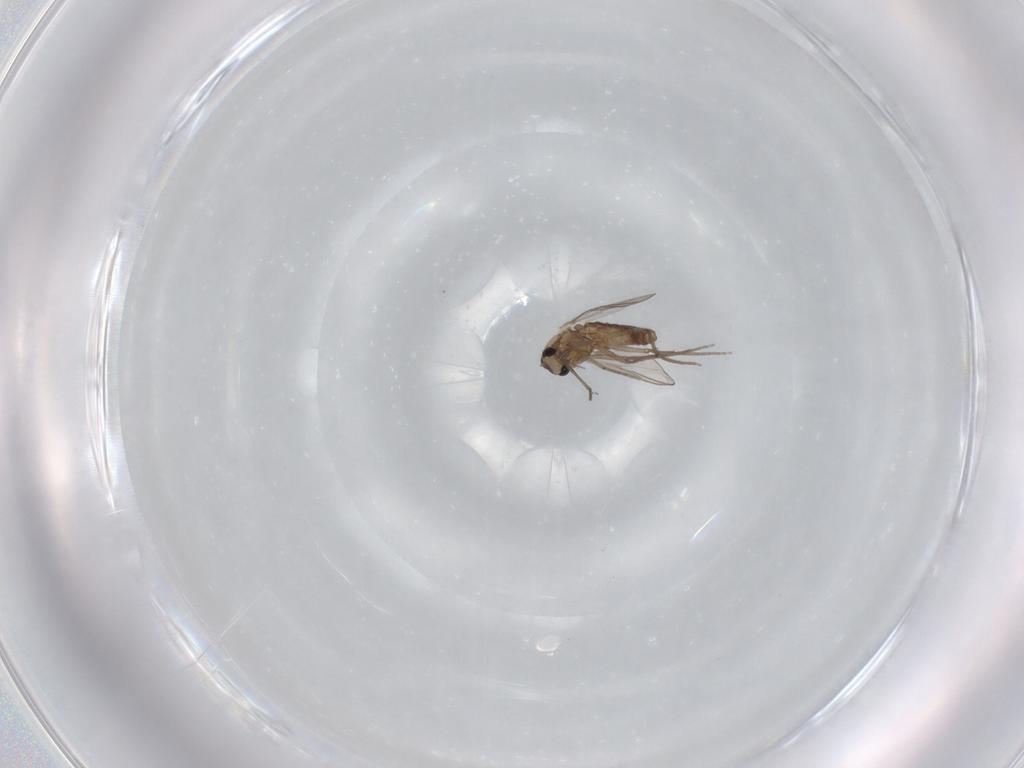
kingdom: Animalia
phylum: Arthropoda
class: Insecta
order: Diptera
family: Chironomidae
